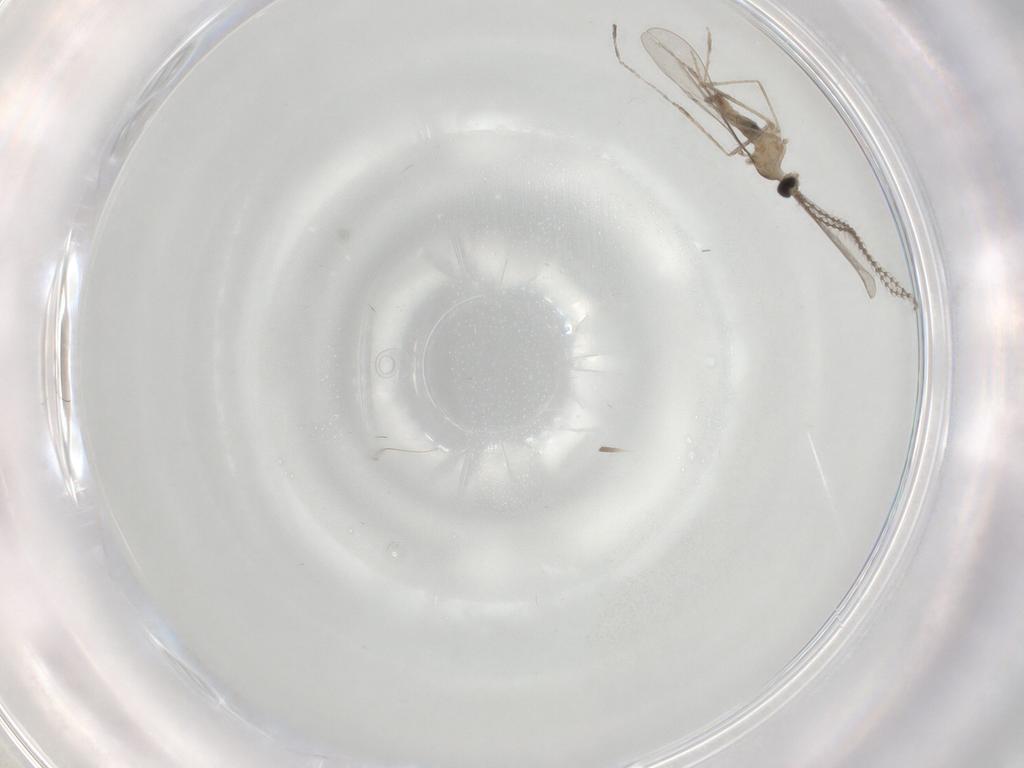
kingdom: Animalia
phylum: Arthropoda
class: Insecta
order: Diptera
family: Cecidomyiidae
